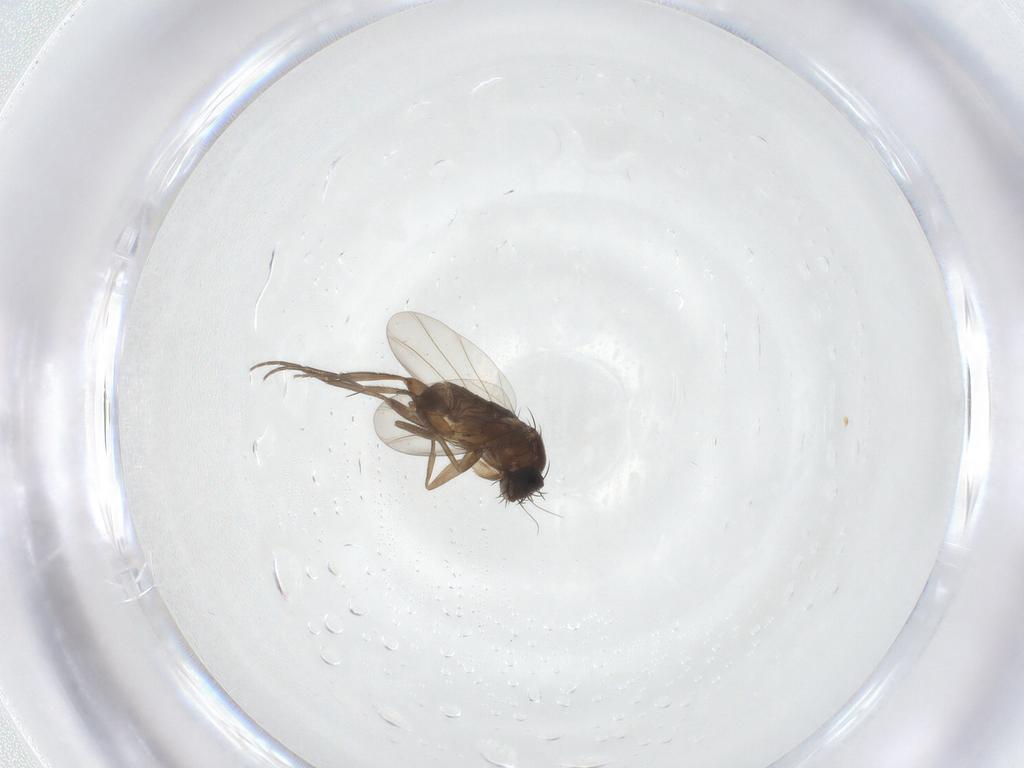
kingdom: Animalia
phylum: Arthropoda
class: Insecta
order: Diptera
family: Phoridae
